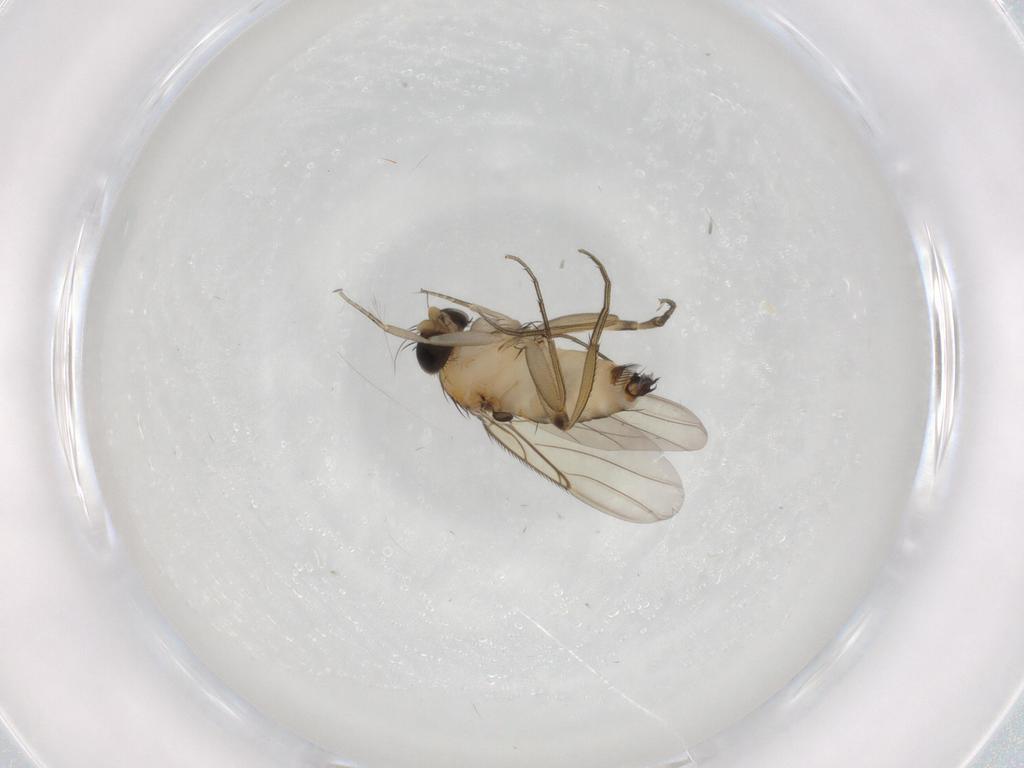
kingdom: Animalia
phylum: Arthropoda
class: Insecta
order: Diptera
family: Phoridae
